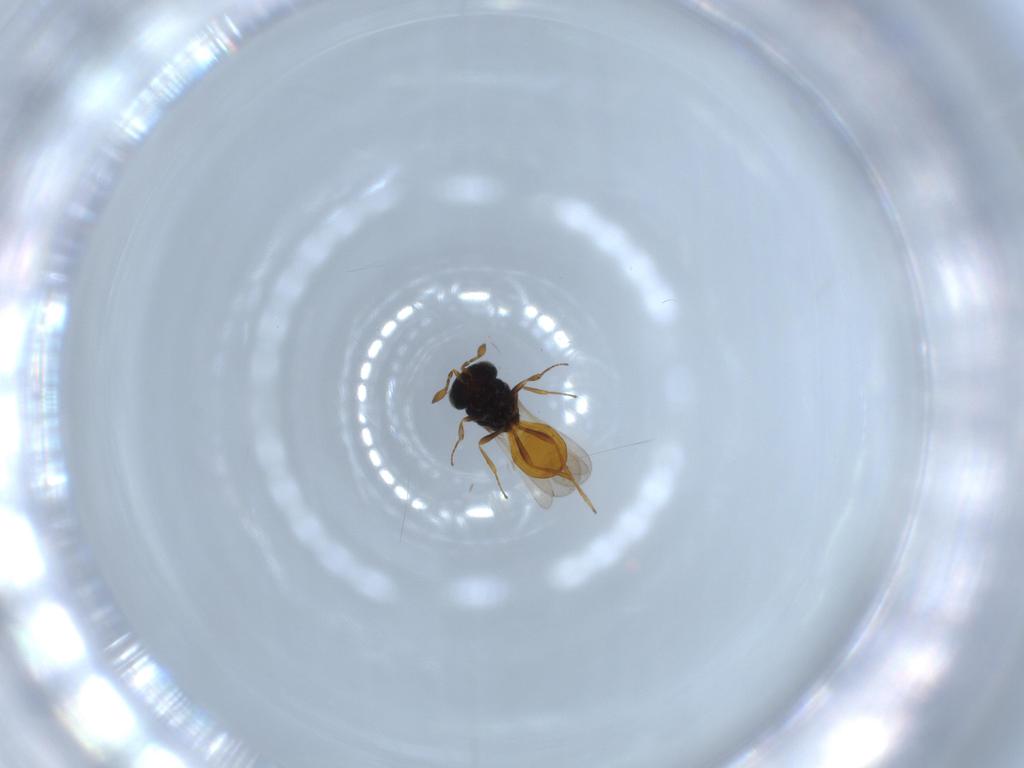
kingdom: Animalia
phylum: Arthropoda
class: Insecta
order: Hymenoptera
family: Scelionidae
